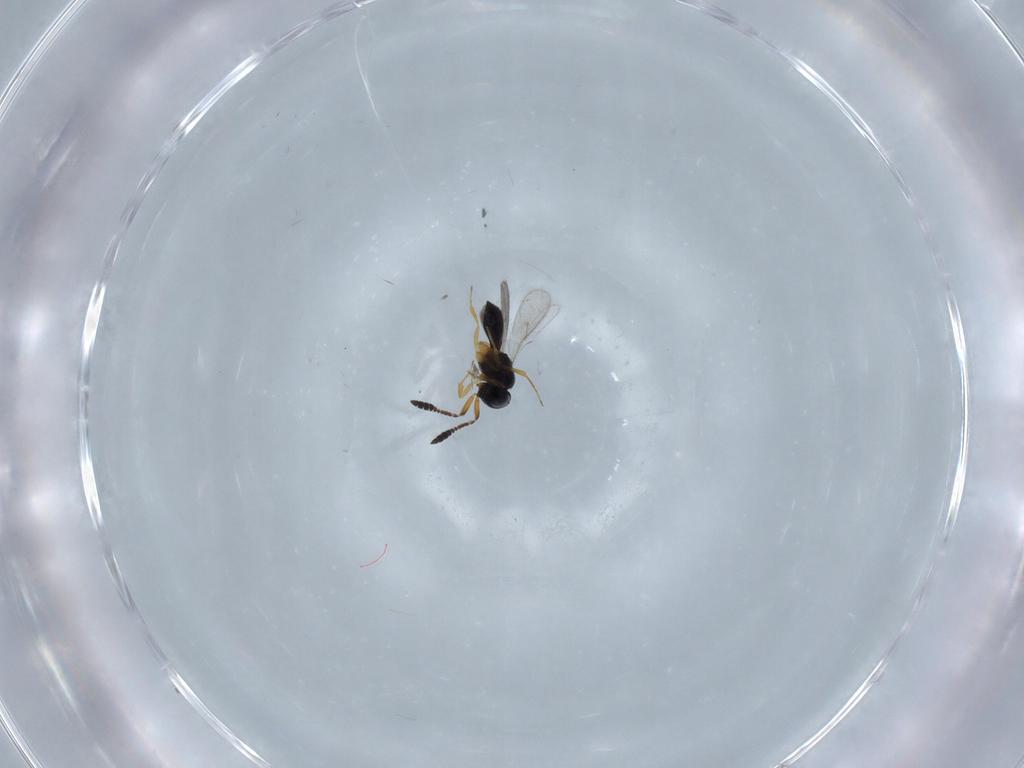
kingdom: Animalia
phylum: Arthropoda
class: Insecta
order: Hymenoptera
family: Scelionidae
